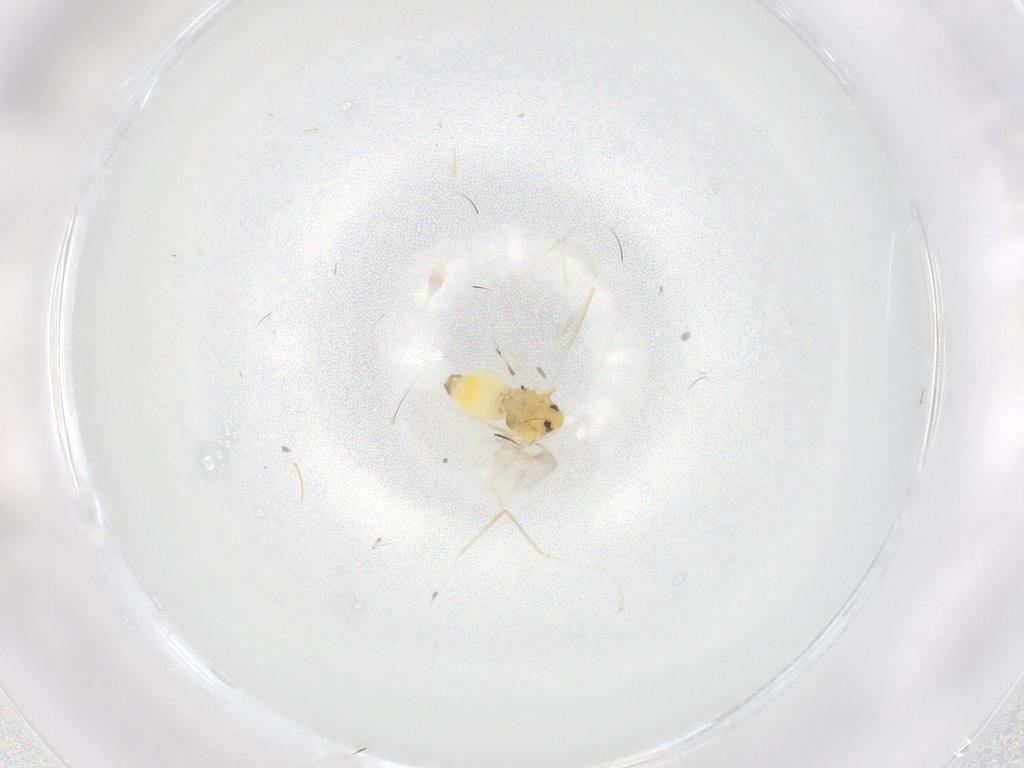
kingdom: Animalia
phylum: Arthropoda
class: Insecta
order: Hemiptera
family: Aleyrodidae
